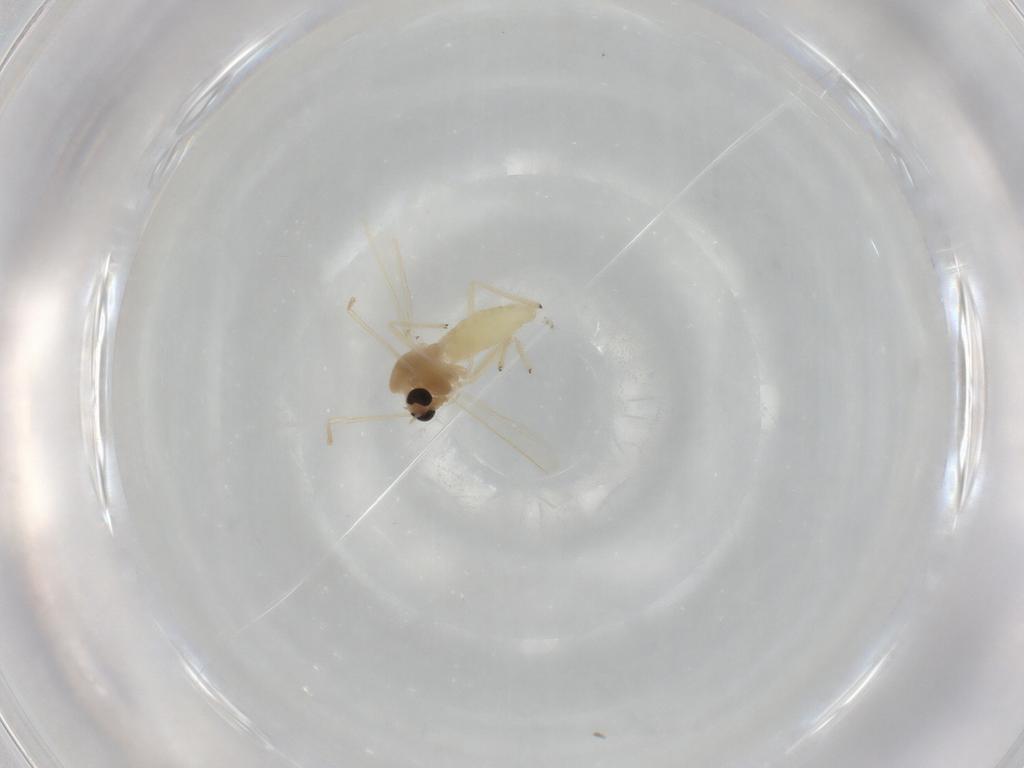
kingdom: Animalia
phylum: Arthropoda
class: Insecta
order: Diptera
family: Chironomidae
